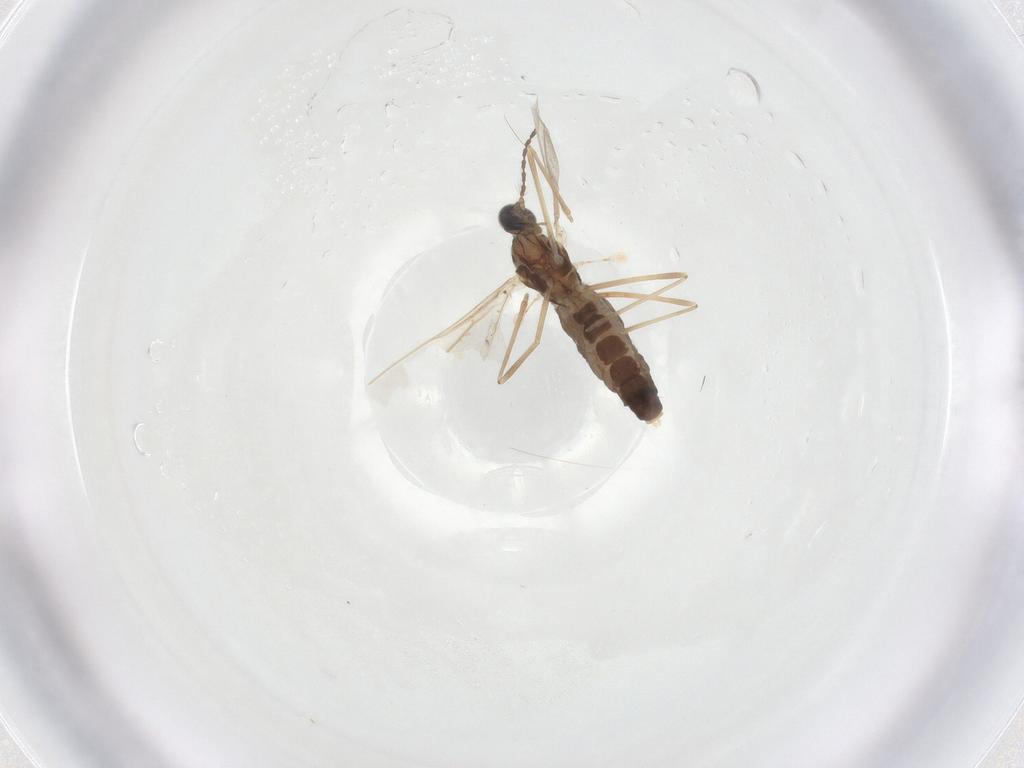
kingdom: Animalia
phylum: Arthropoda
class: Insecta
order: Diptera
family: Cecidomyiidae
